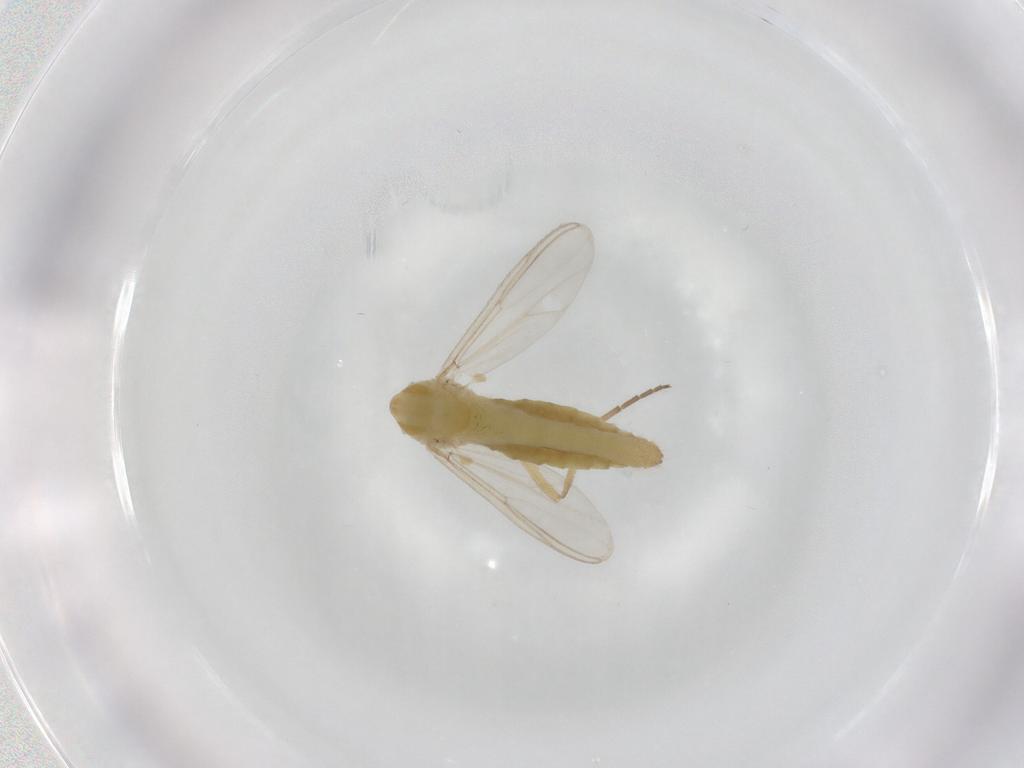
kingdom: Animalia
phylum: Arthropoda
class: Insecta
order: Diptera
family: Chironomidae
